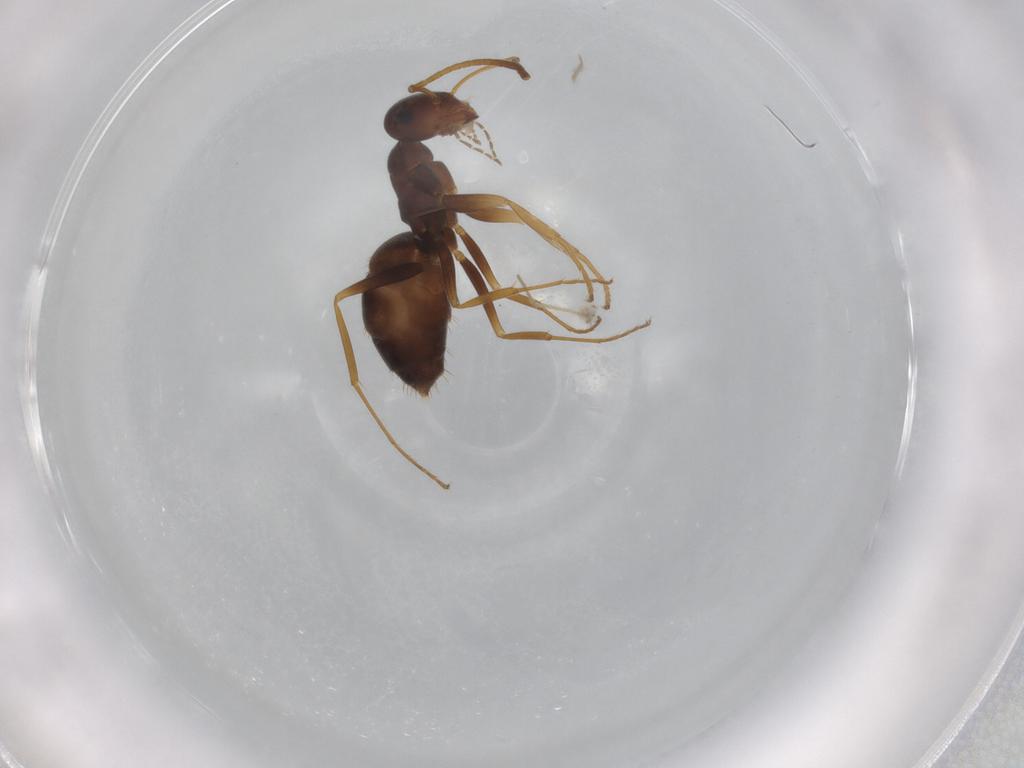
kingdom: Animalia
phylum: Arthropoda
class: Insecta
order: Hymenoptera
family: Formicidae
